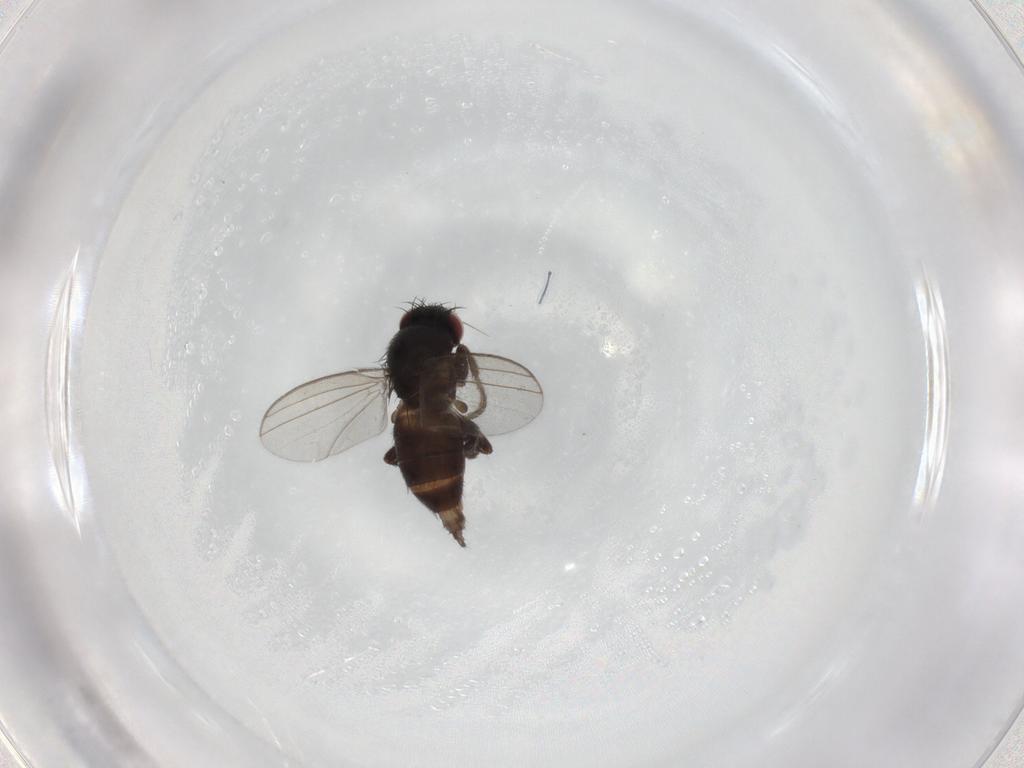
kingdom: Animalia
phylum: Arthropoda
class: Insecta
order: Diptera
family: Milichiidae
